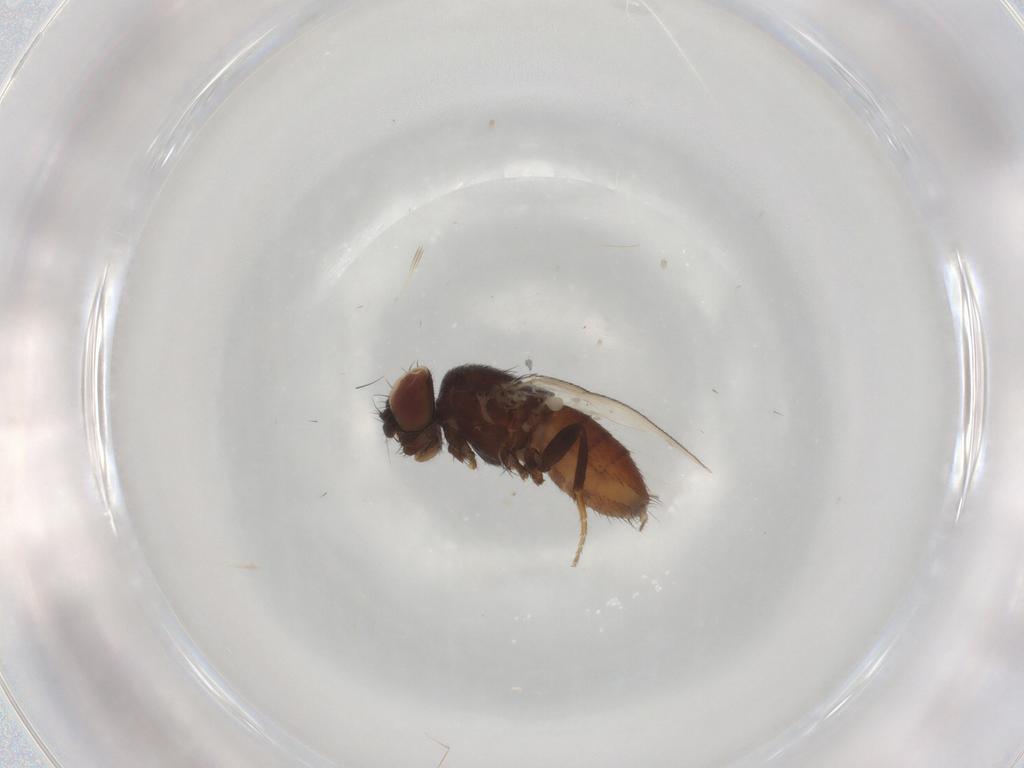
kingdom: Animalia
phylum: Arthropoda
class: Insecta
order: Diptera
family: Milichiidae
